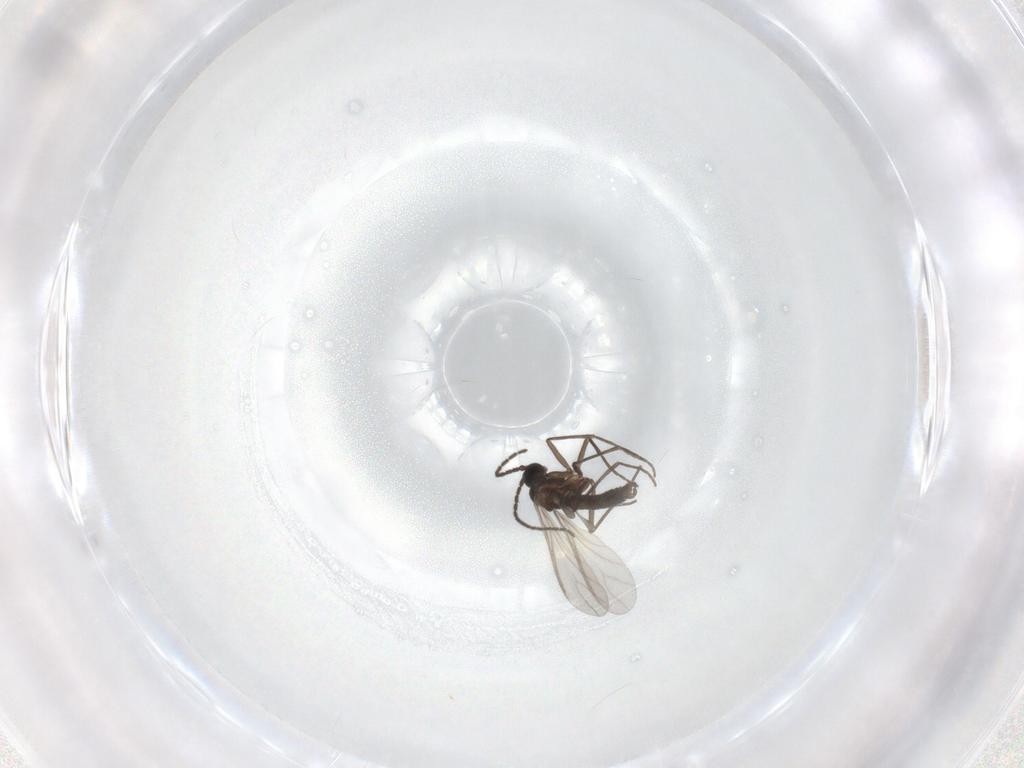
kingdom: Animalia
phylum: Arthropoda
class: Insecta
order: Diptera
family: Sciaridae
